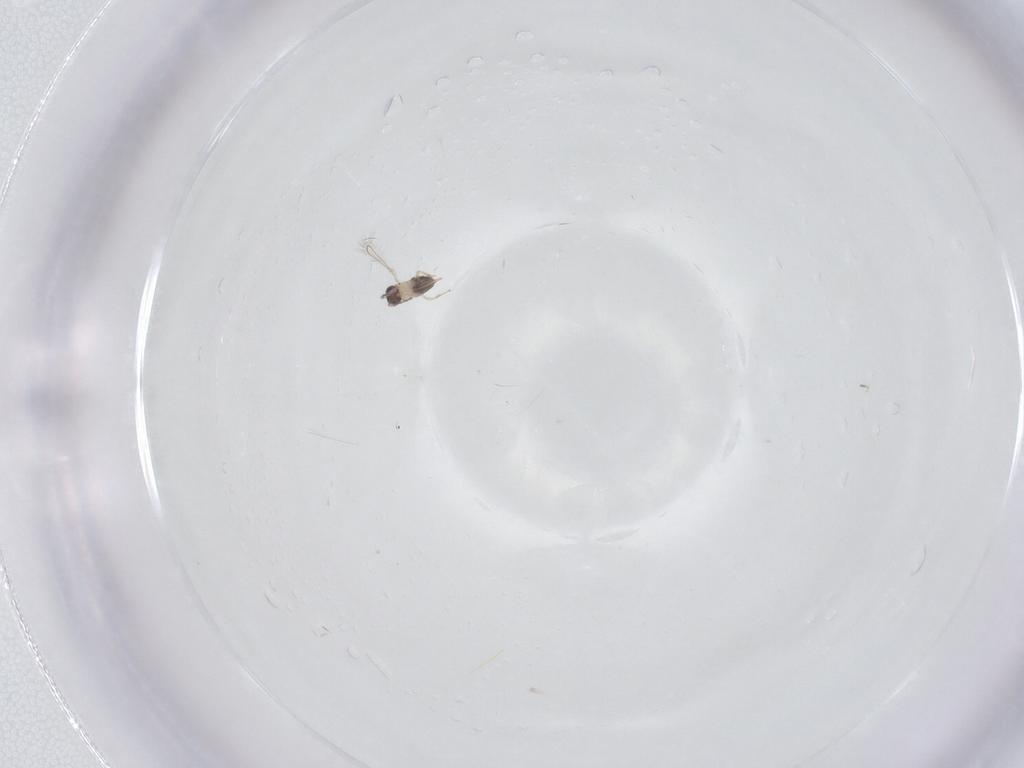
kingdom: Animalia
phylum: Arthropoda
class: Insecta
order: Hymenoptera
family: Mymaridae
